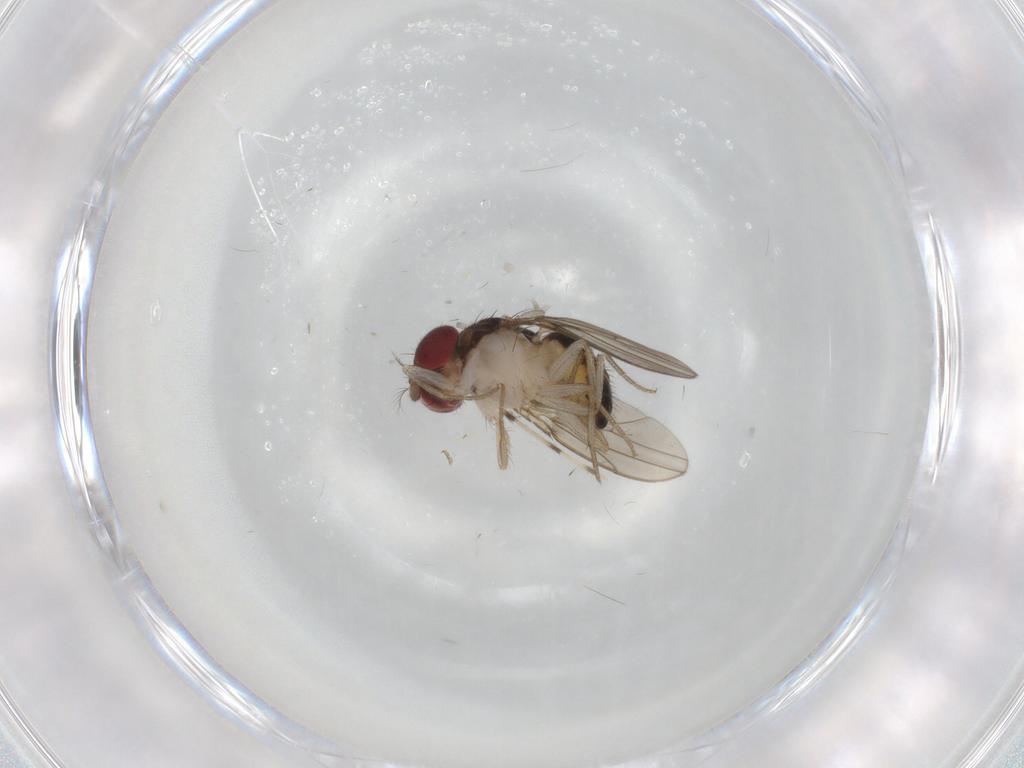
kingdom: Animalia
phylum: Arthropoda
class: Insecta
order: Diptera
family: Drosophilidae
